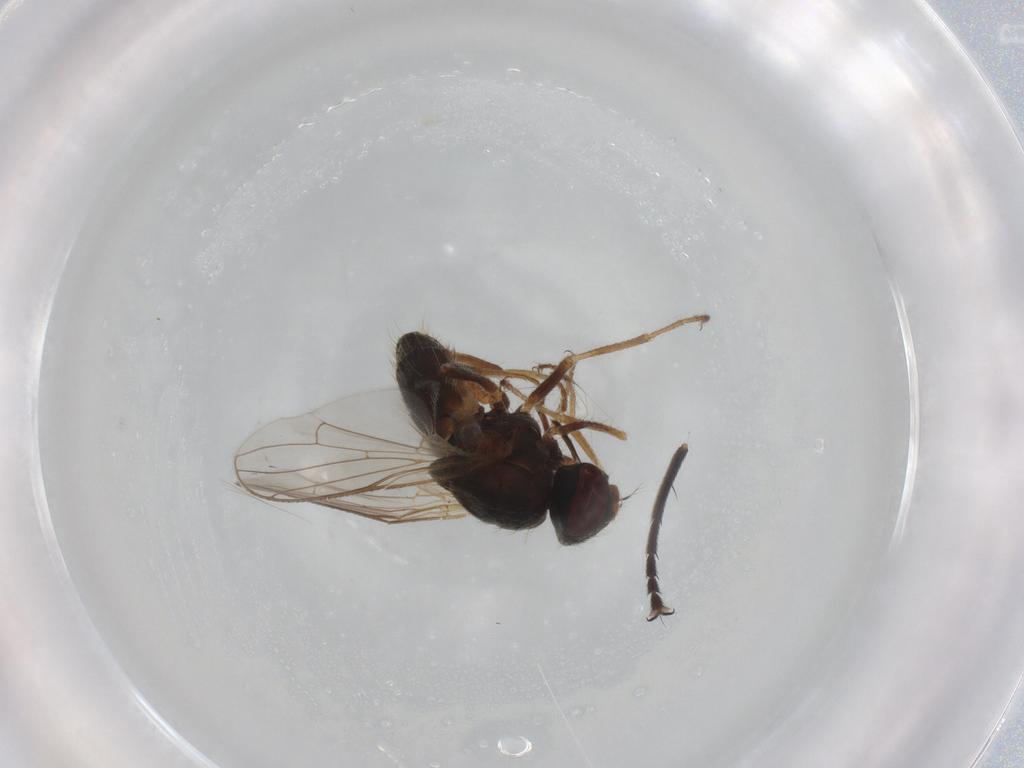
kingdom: Animalia
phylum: Arthropoda
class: Insecta
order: Diptera
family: Muscidae
